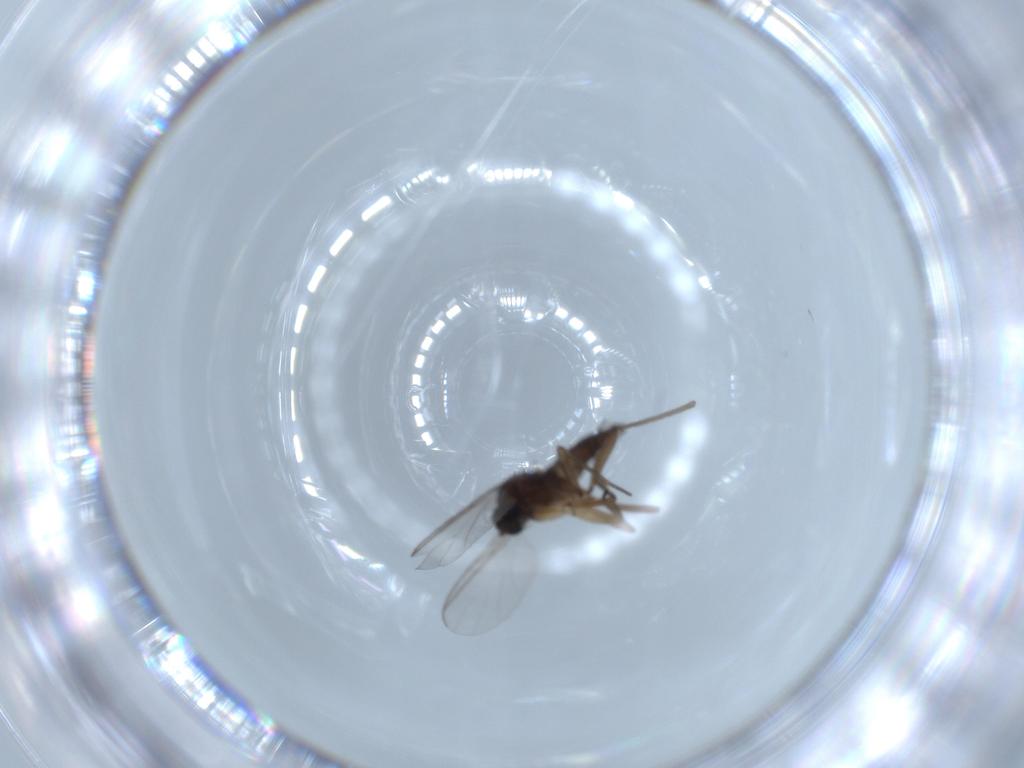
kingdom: Animalia
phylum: Arthropoda
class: Insecta
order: Diptera
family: Sciaridae
